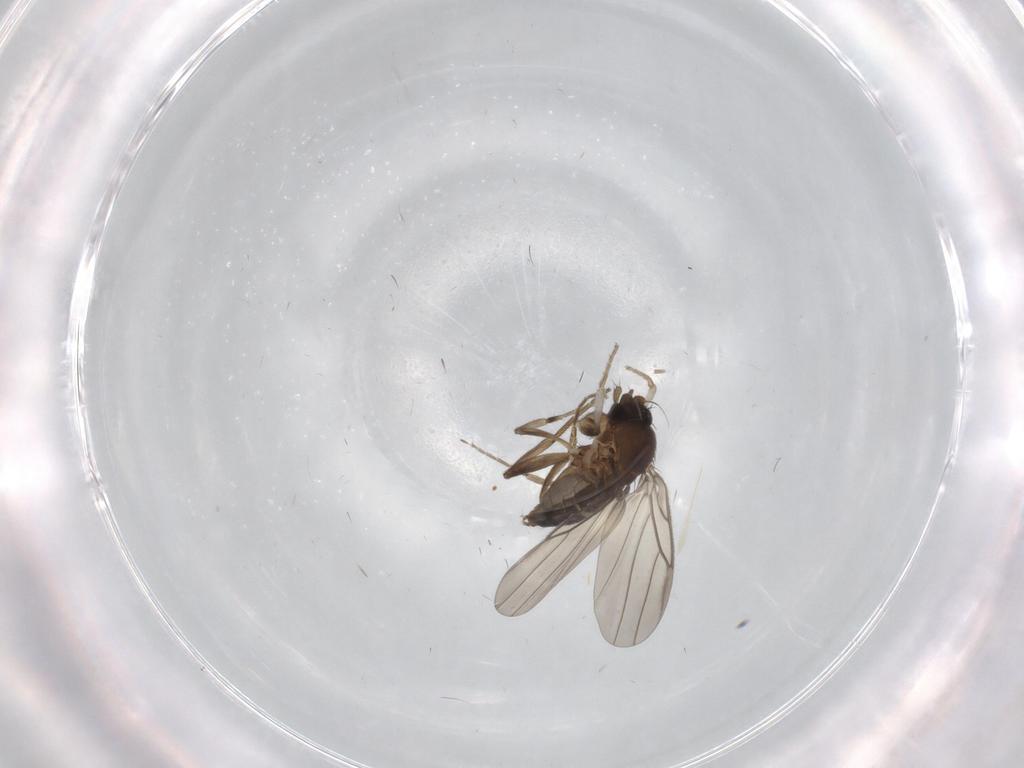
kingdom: Animalia
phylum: Arthropoda
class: Insecta
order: Diptera
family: Phoridae
